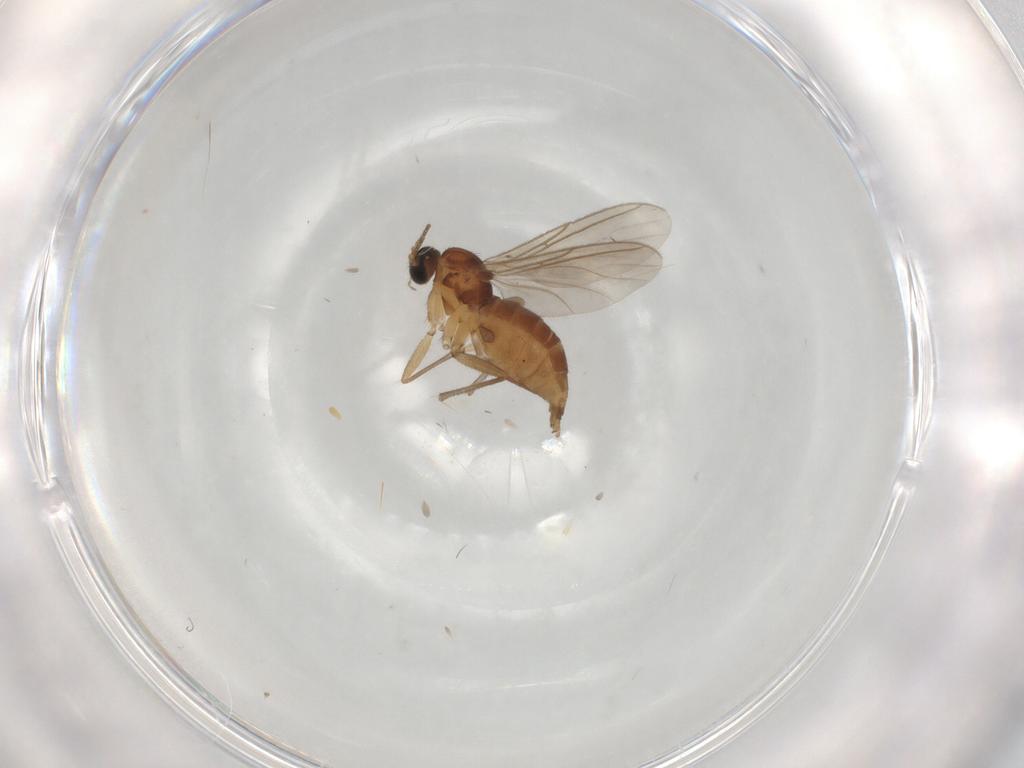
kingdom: Animalia
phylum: Arthropoda
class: Insecta
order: Diptera
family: Sciaridae
